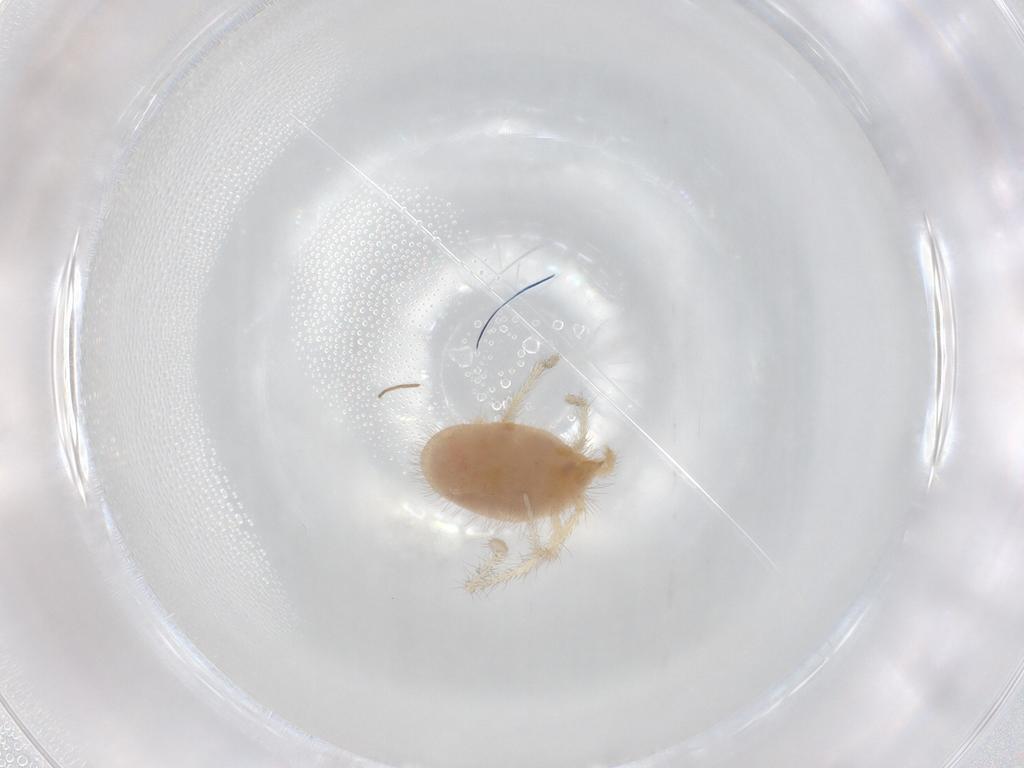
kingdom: Animalia
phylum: Arthropoda
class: Arachnida
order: Trombidiformes
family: Erythraeidae
